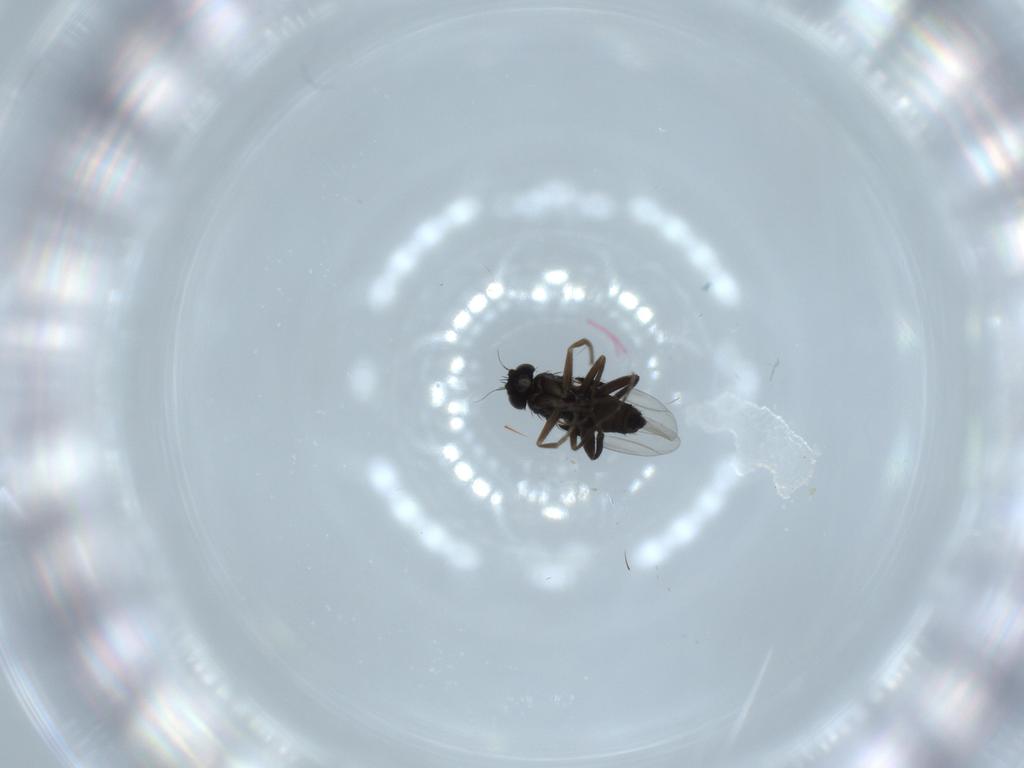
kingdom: Animalia
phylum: Arthropoda
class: Insecta
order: Diptera
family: Phoridae
